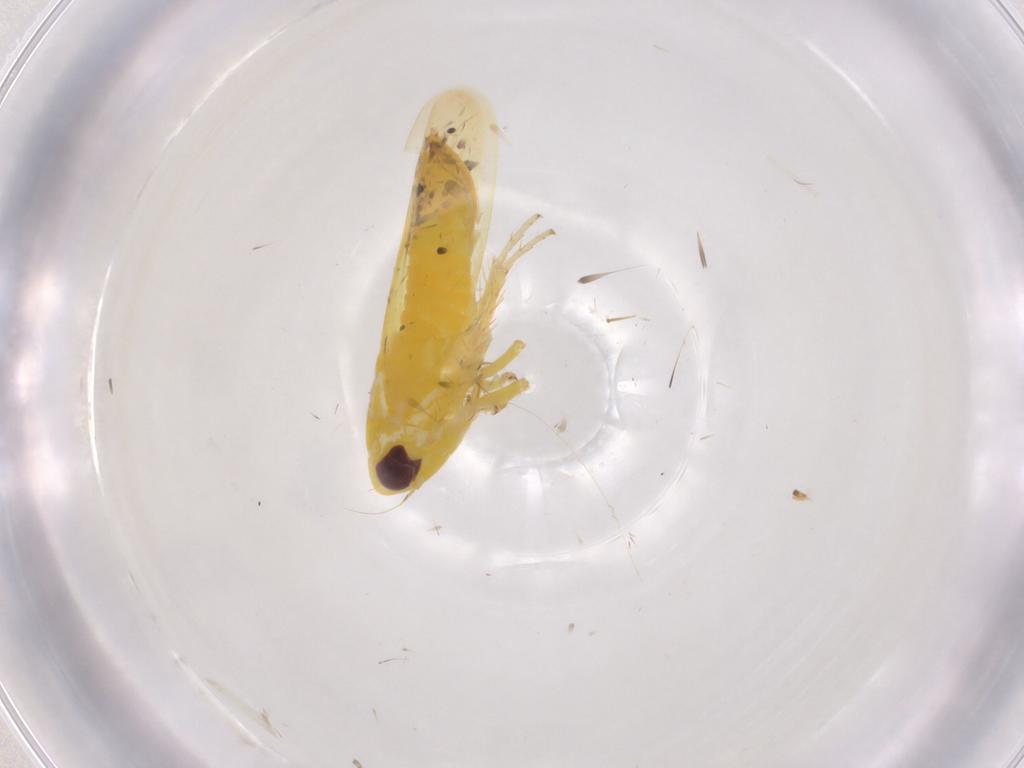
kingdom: Animalia
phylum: Arthropoda
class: Insecta
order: Hemiptera
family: Cicadellidae
